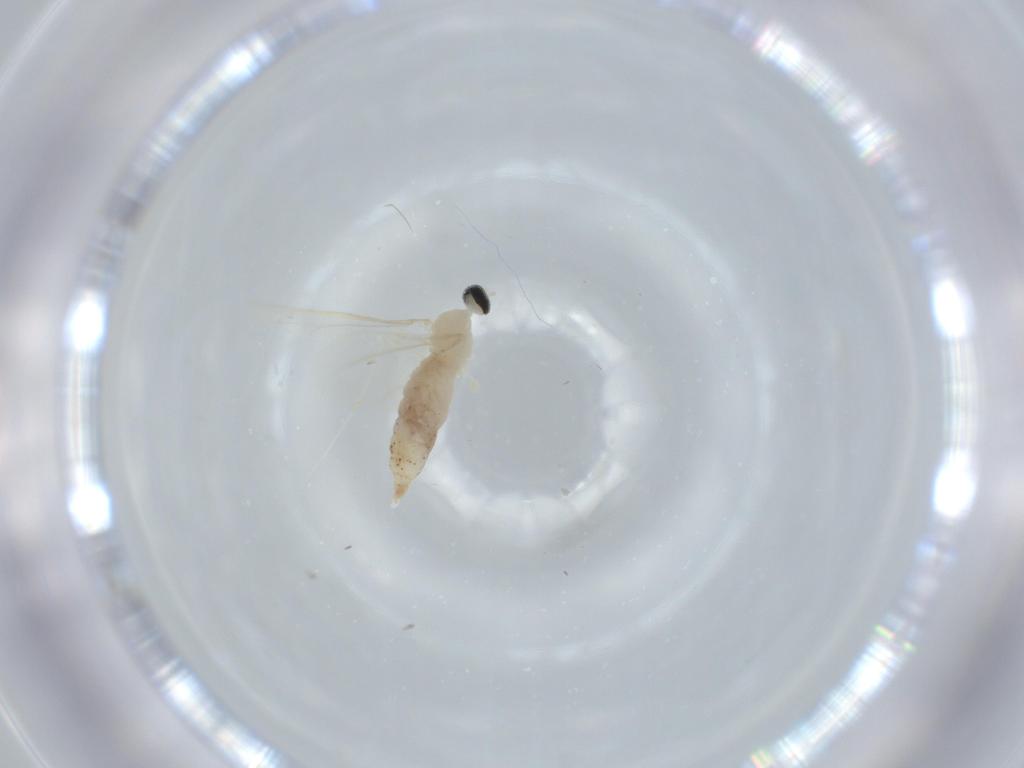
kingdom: Animalia
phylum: Arthropoda
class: Insecta
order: Diptera
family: Cecidomyiidae
